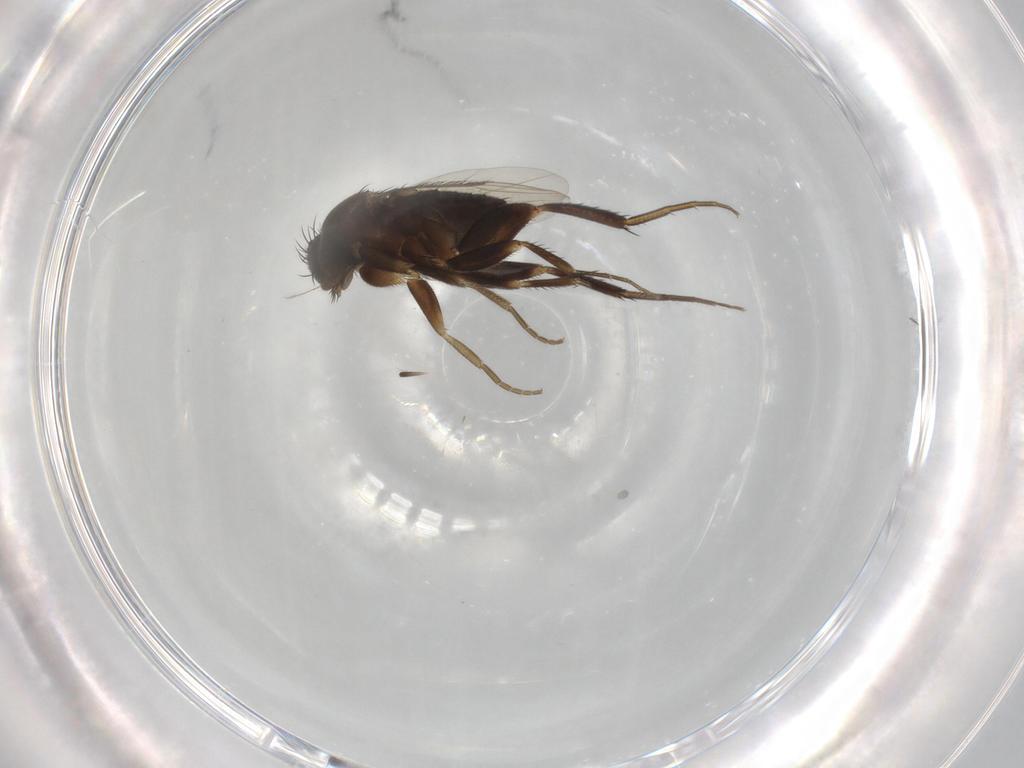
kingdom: Animalia
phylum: Arthropoda
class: Insecta
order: Diptera
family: Phoridae
